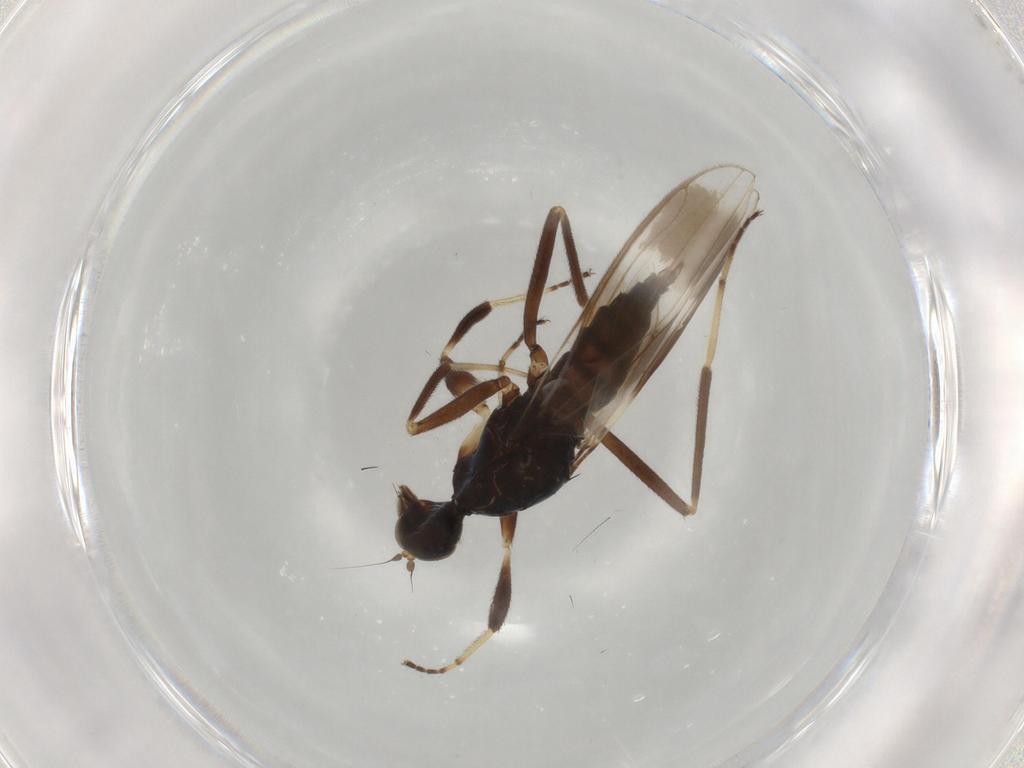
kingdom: Animalia
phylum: Arthropoda
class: Insecta
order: Diptera
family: Hybotidae
